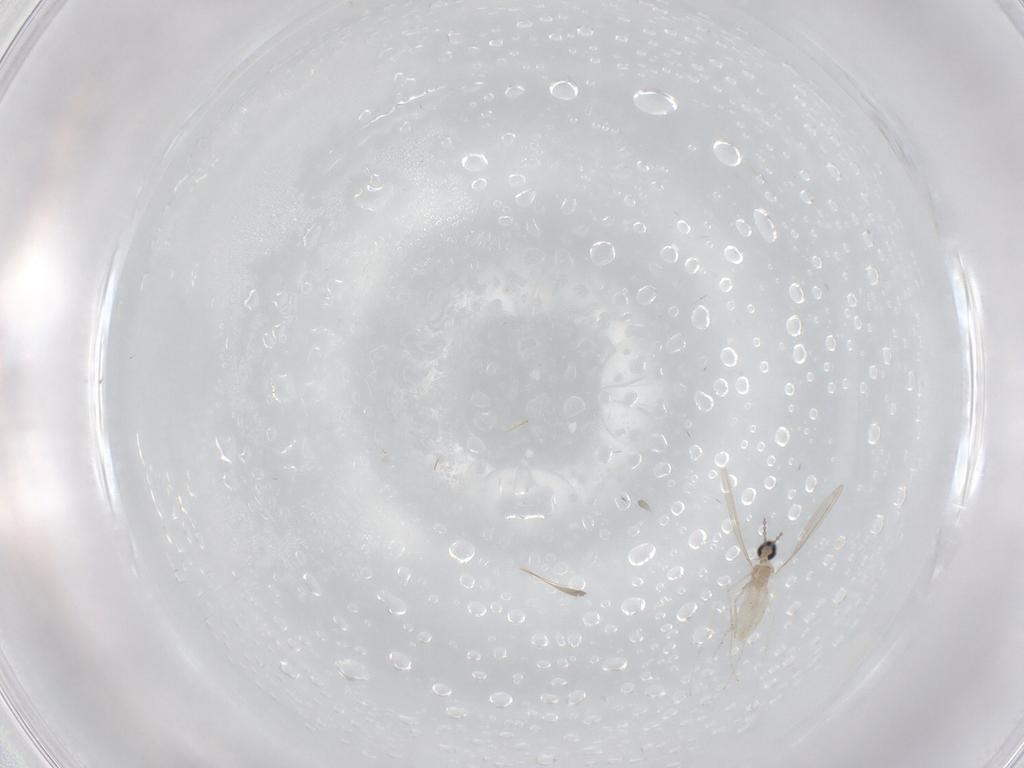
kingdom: Animalia
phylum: Arthropoda
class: Insecta
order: Diptera
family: Cecidomyiidae
